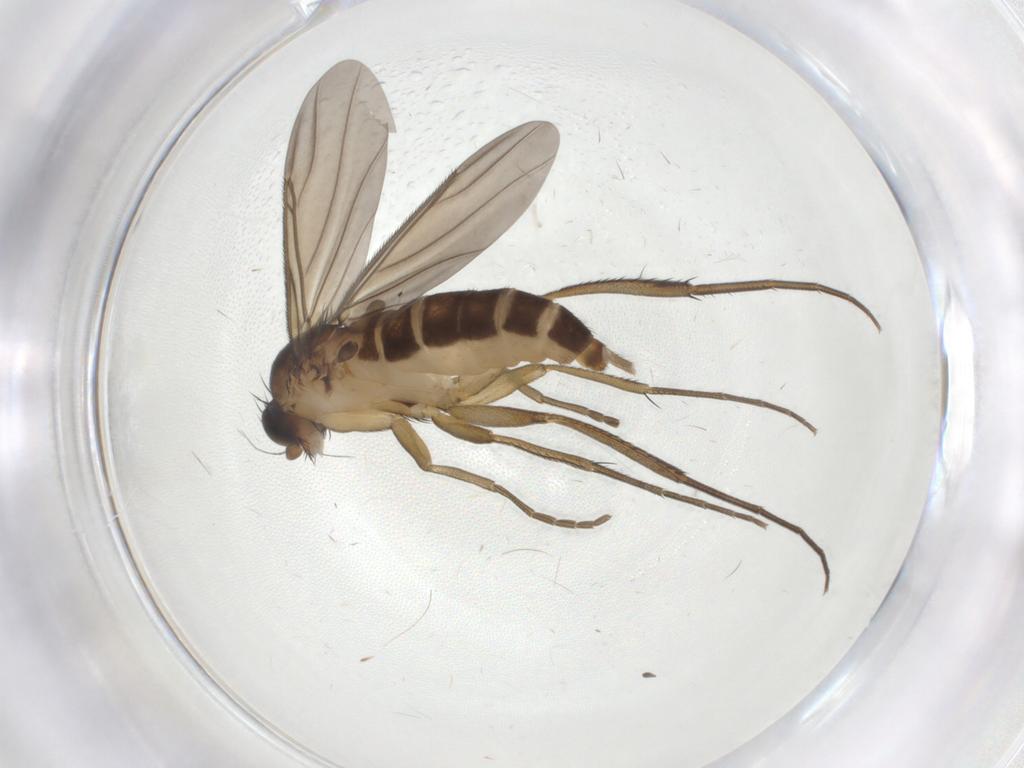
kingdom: Animalia
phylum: Arthropoda
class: Insecta
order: Diptera
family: Phoridae
